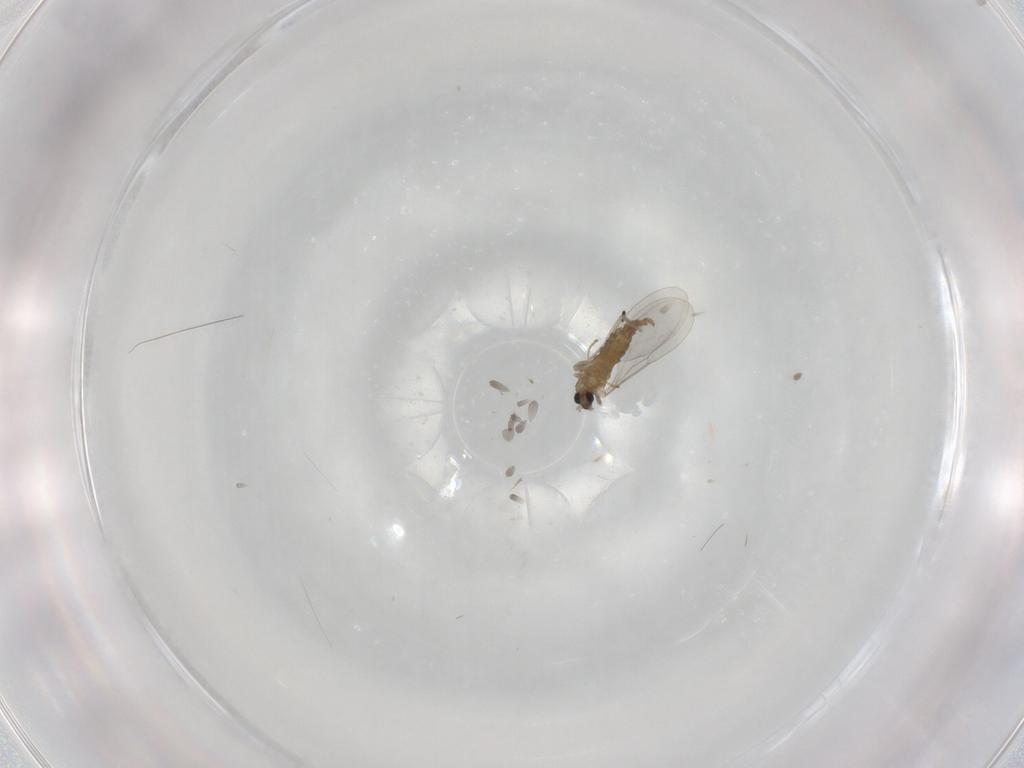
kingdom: Animalia
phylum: Arthropoda
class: Insecta
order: Diptera
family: Cecidomyiidae
